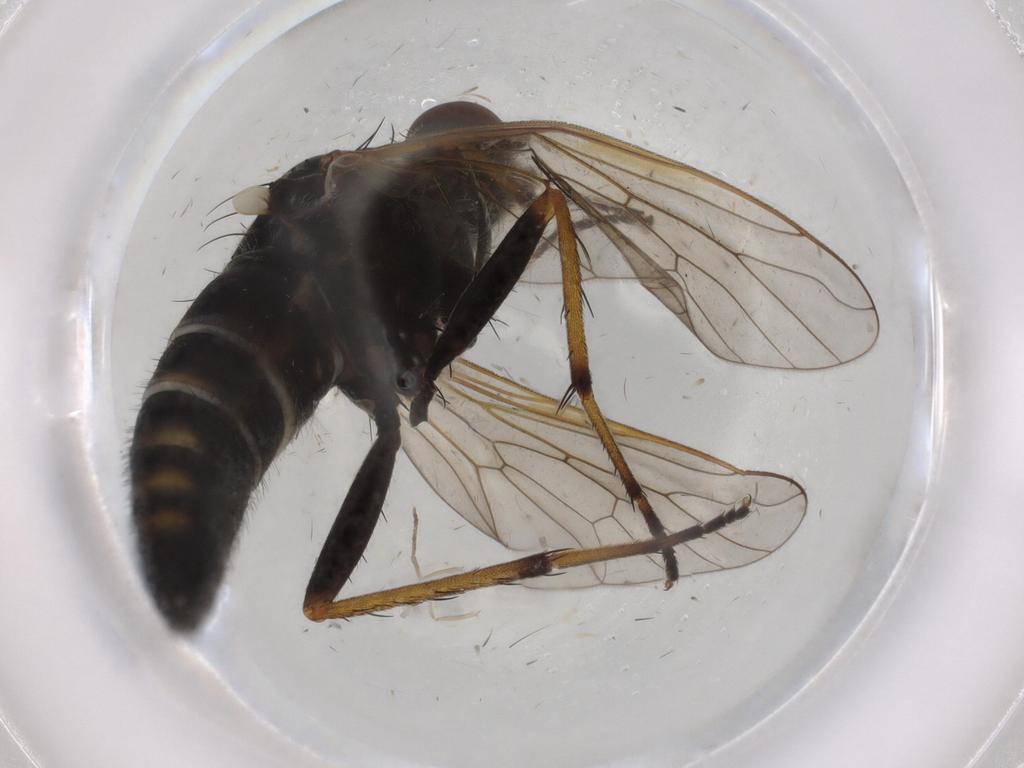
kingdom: Animalia
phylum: Arthropoda
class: Insecta
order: Diptera
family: Therevidae
